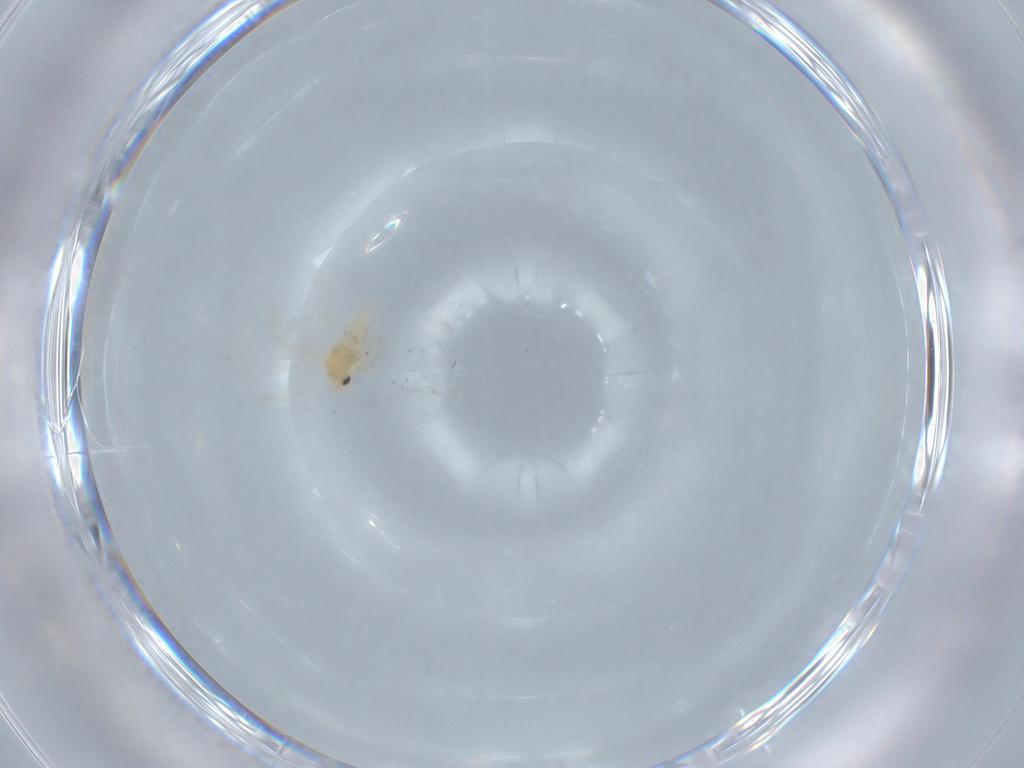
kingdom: Animalia
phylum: Arthropoda
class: Insecta
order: Hemiptera
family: Aleyrodidae
